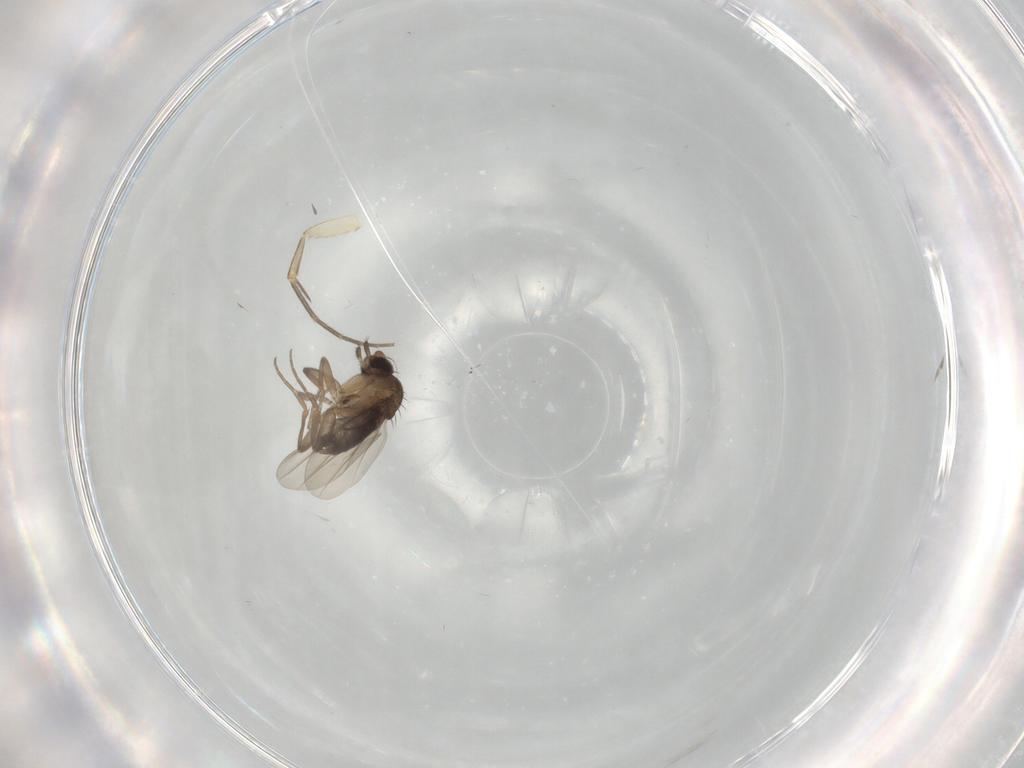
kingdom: Animalia
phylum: Arthropoda
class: Insecta
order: Diptera
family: Mycetophilidae
